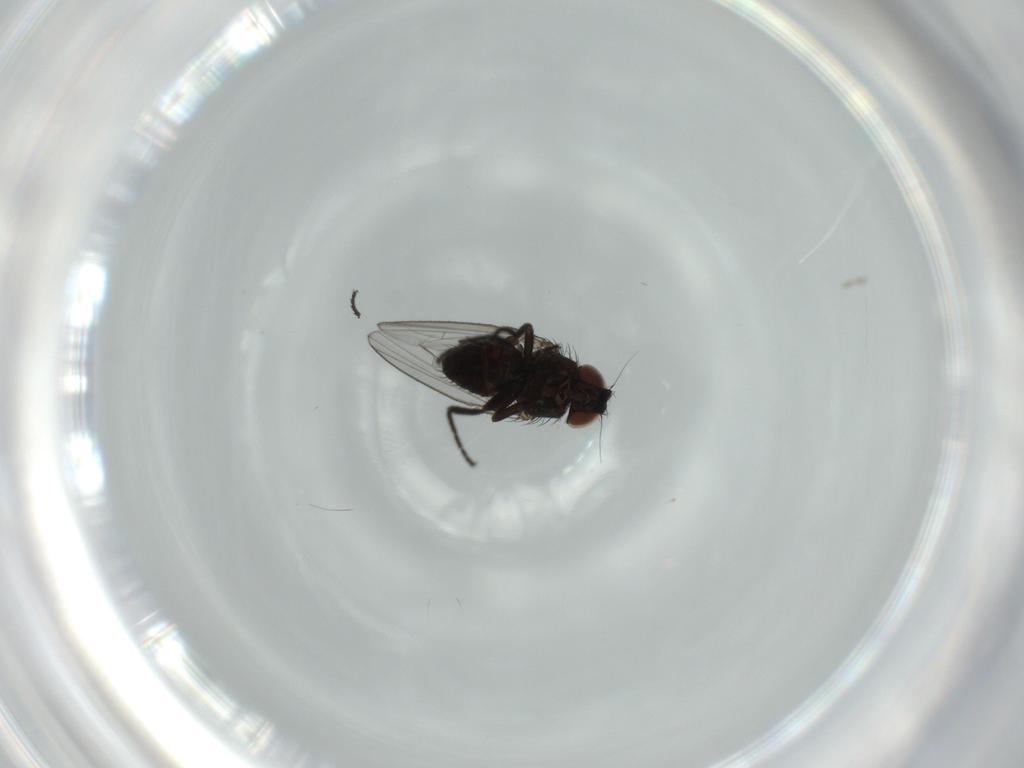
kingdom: Animalia
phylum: Arthropoda
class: Insecta
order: Diptera
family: Milichiidae
